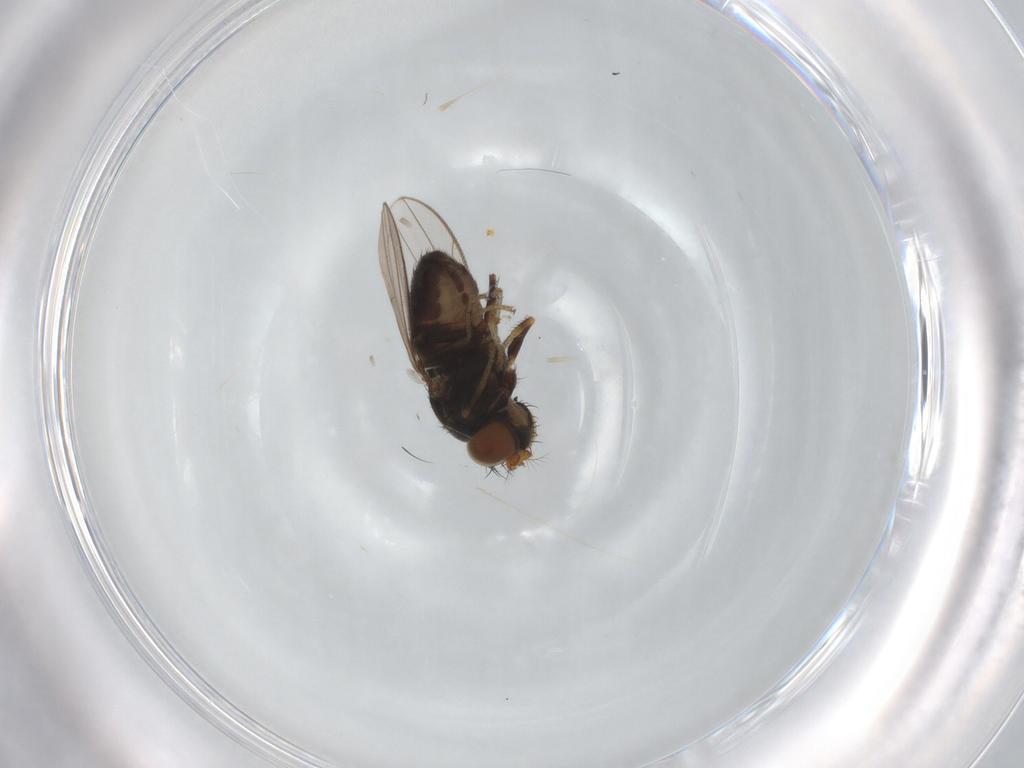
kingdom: Animalia
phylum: Arthropoda
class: Insecta
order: Diptera
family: Ephydridae
